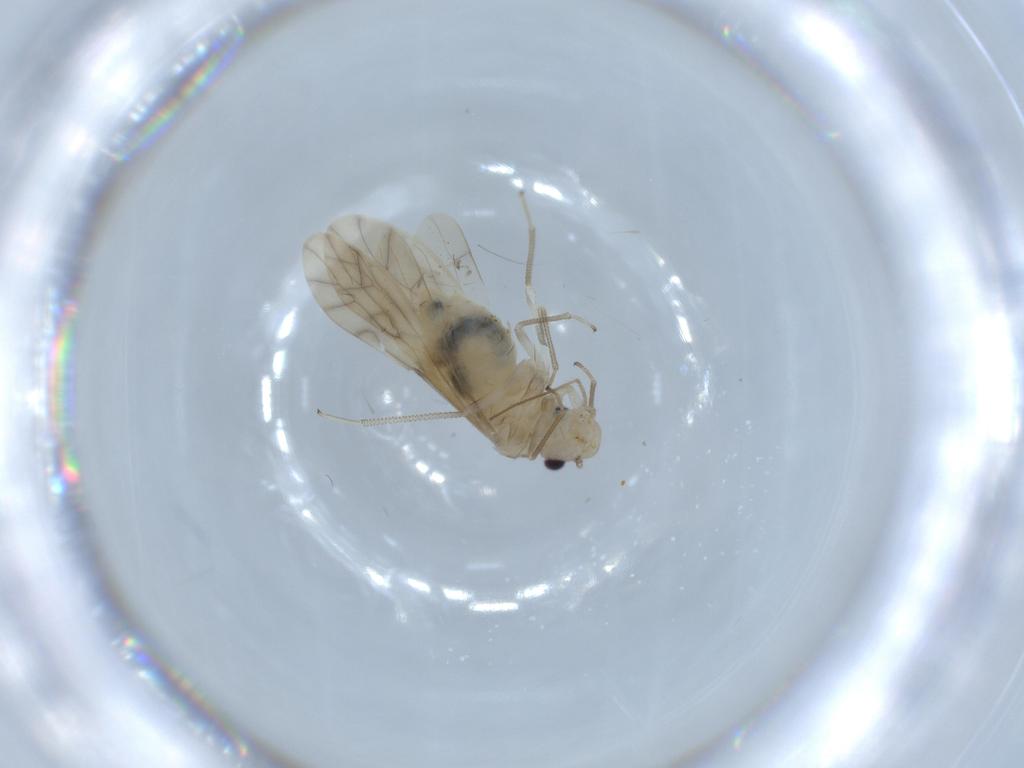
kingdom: Animalia
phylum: Arthropoda
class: Insecta
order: Psocodea
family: Caeciliusidae
